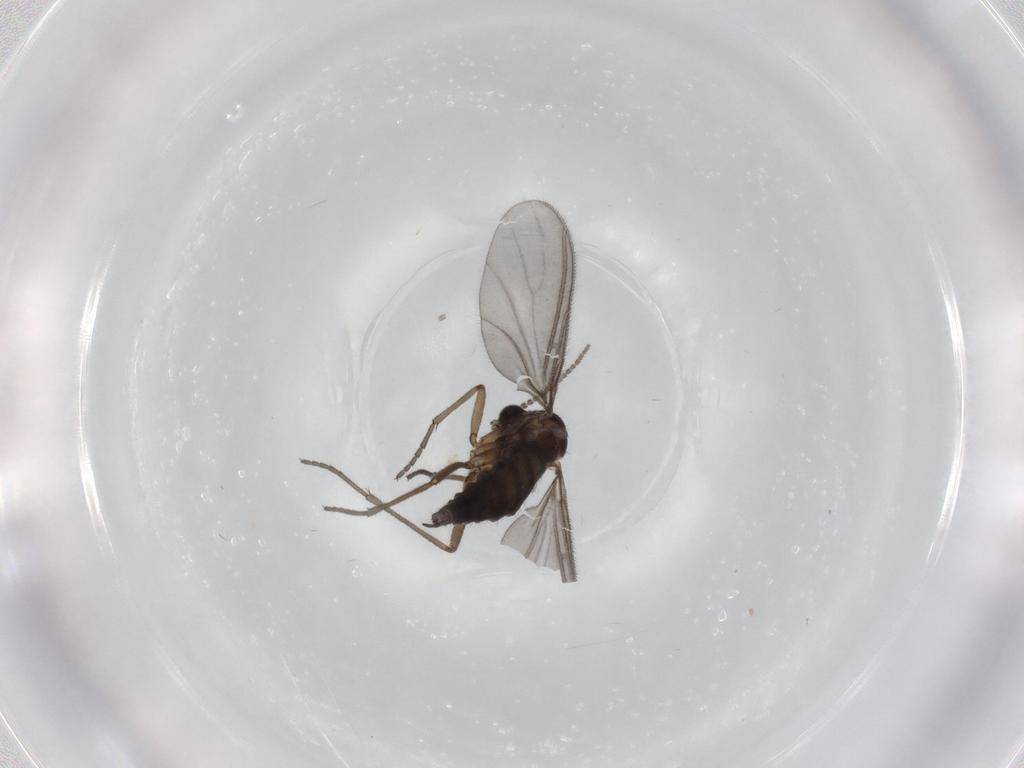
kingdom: Animalia
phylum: Arthropoda
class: Insecta
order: Diptera
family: Sciaridae
